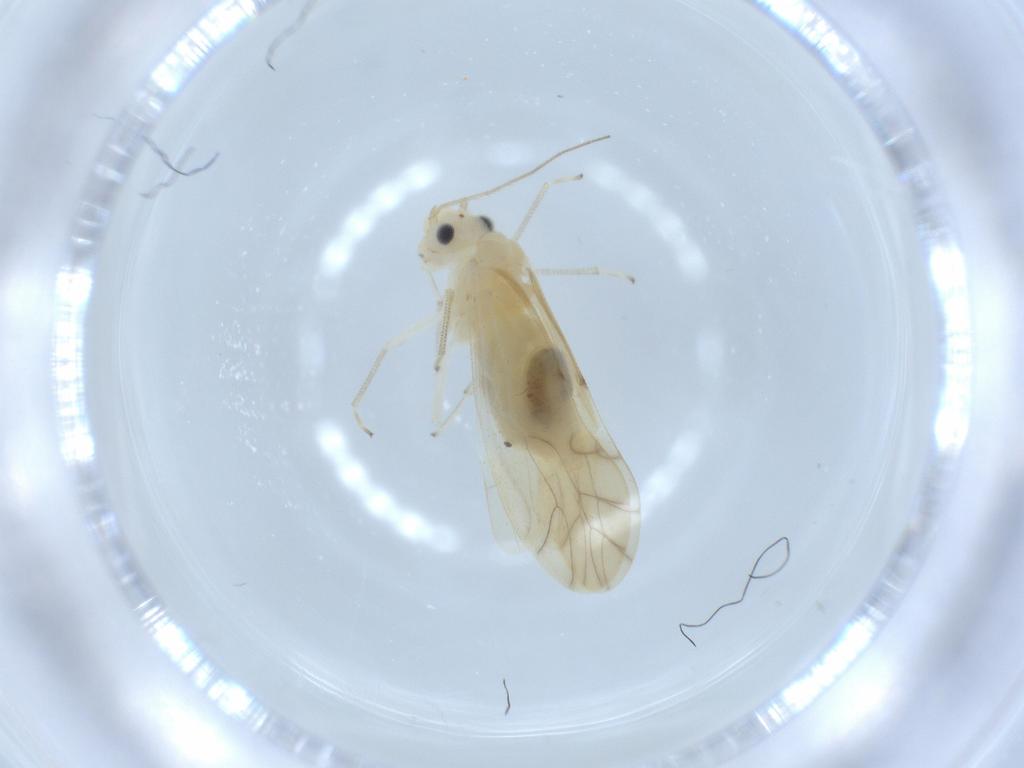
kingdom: Animalia
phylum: Arthropoda
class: Insecta
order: Psocodea
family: Caeciliusidae
